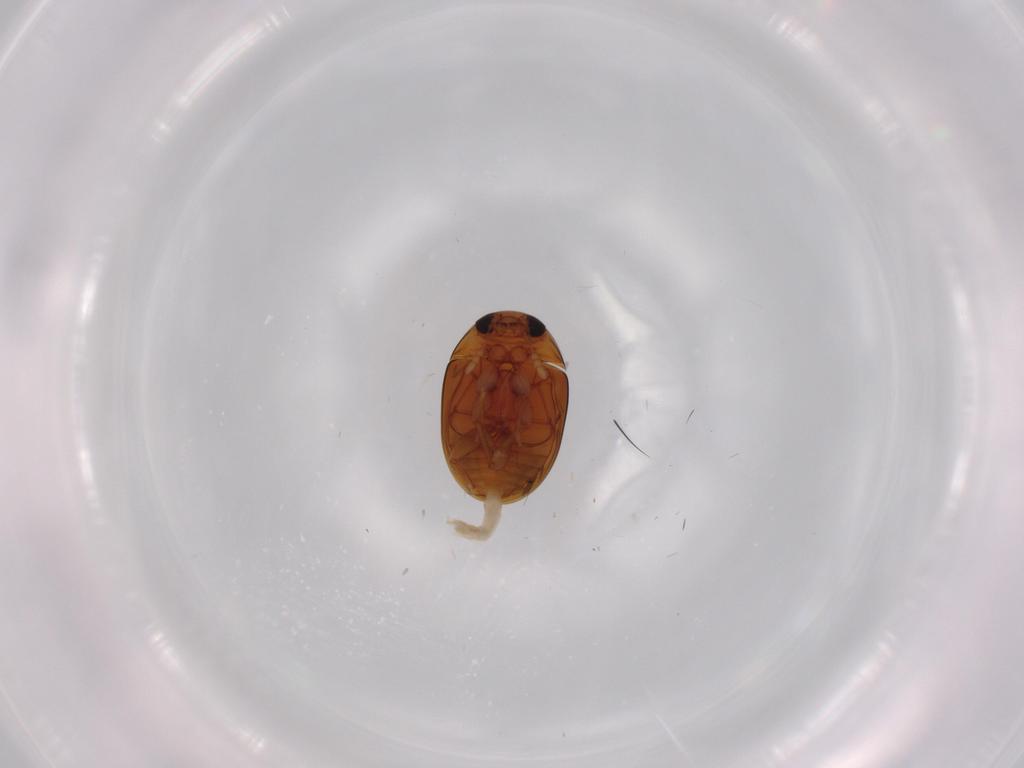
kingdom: Animalia
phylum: Arthropoda
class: Insecta
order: Coleoptera
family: Phalacridae
